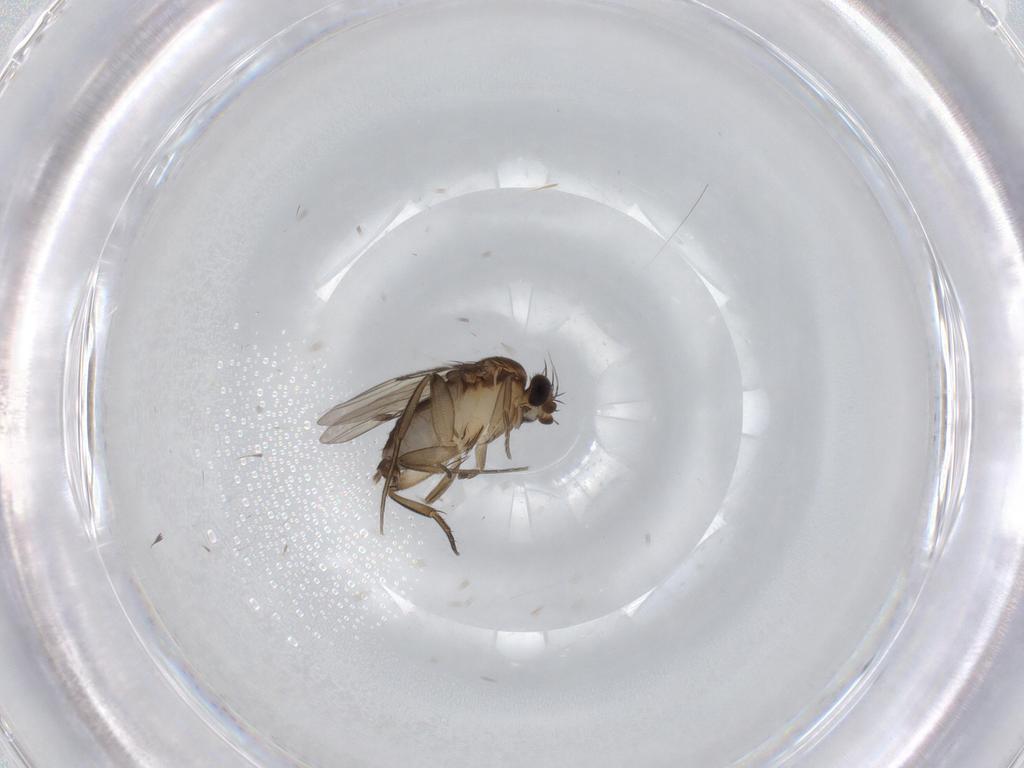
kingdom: Animalia
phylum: Arthropoda
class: Insecta
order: Diptera
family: Phoridae
